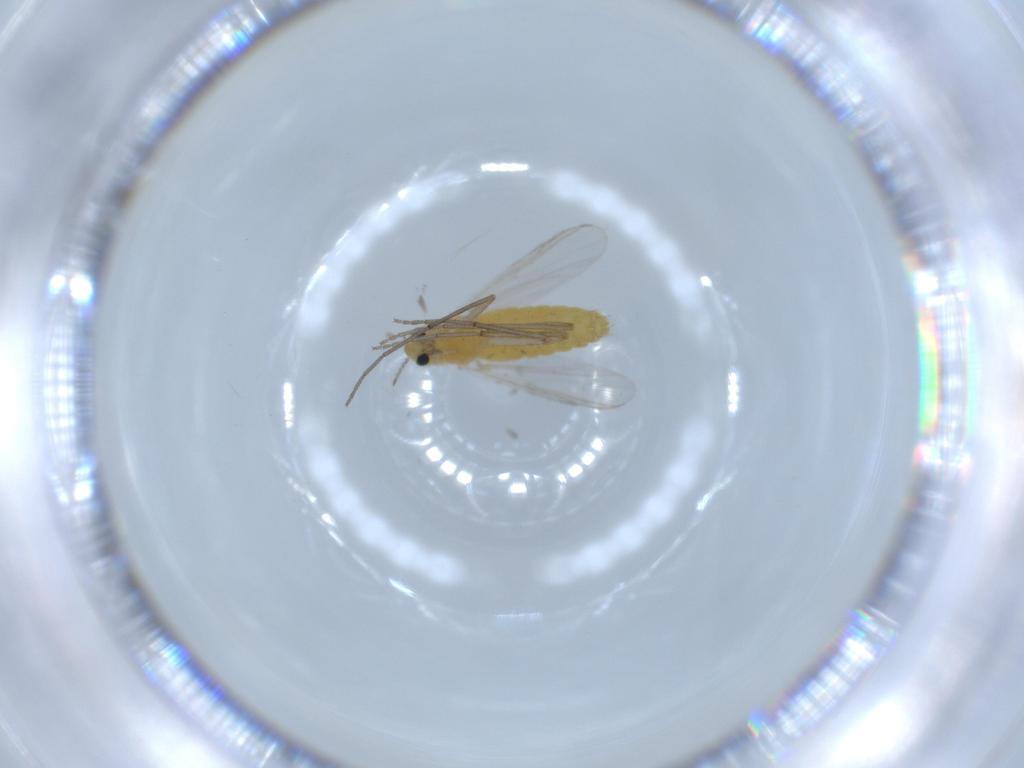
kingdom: Animalia
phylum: Arthropoda
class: Insecta
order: Diptera
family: Chironomidae
